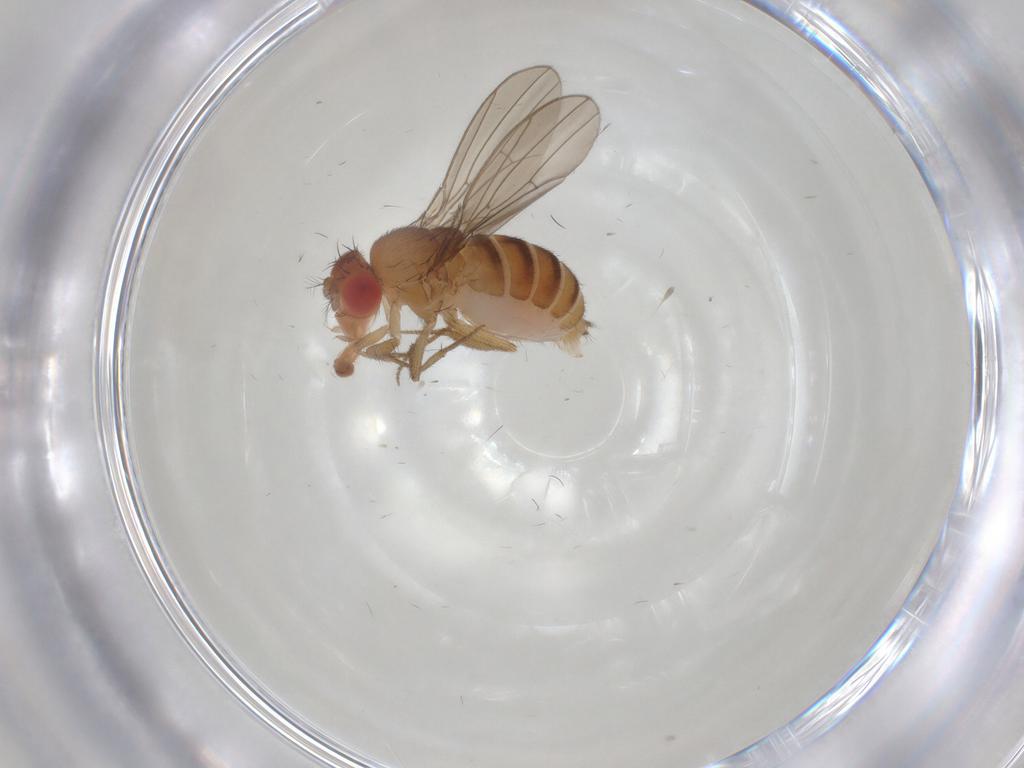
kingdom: Animalia
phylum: Arthropoda
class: Insecta
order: Diptera
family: Drosophilidae
